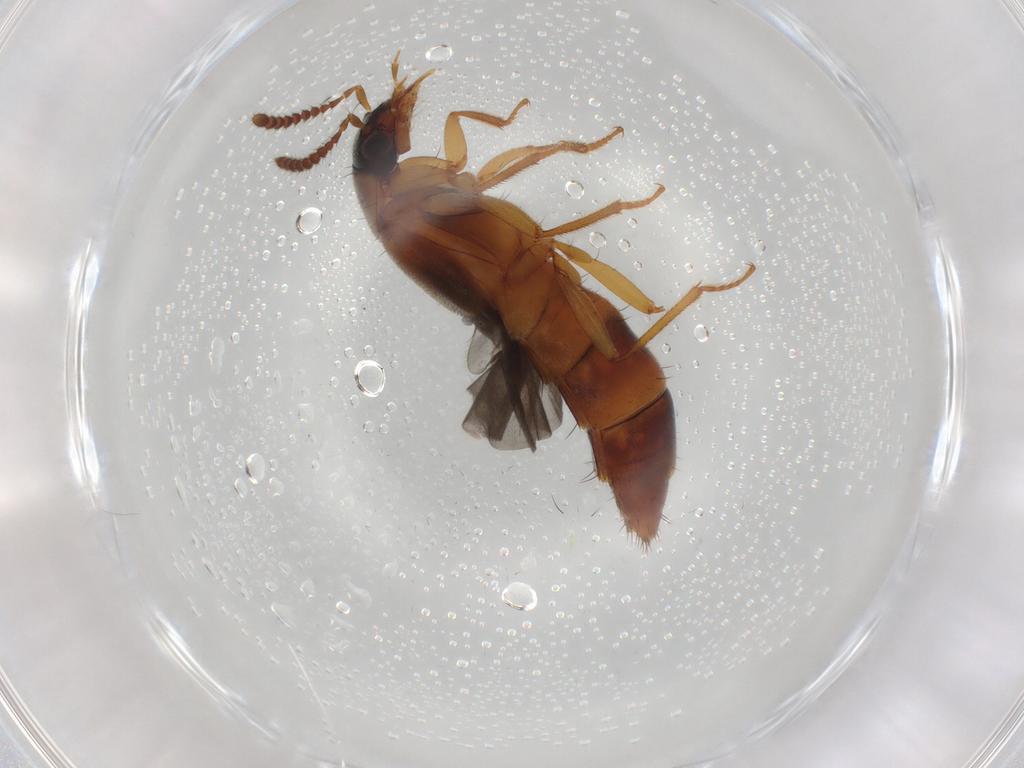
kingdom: Animalia
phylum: Arthropoda
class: Insecta
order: Coleoptera
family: Staphylinidae
